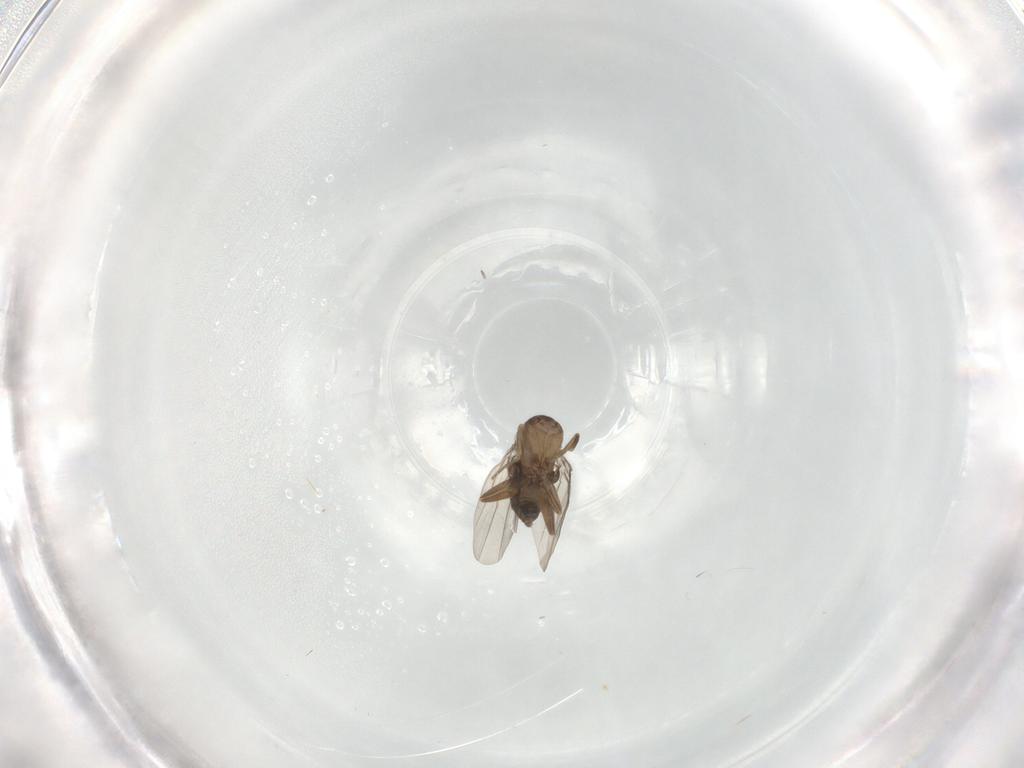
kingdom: Animalia
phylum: Arthropoda
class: Insecta
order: Diptera
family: Phoridae
